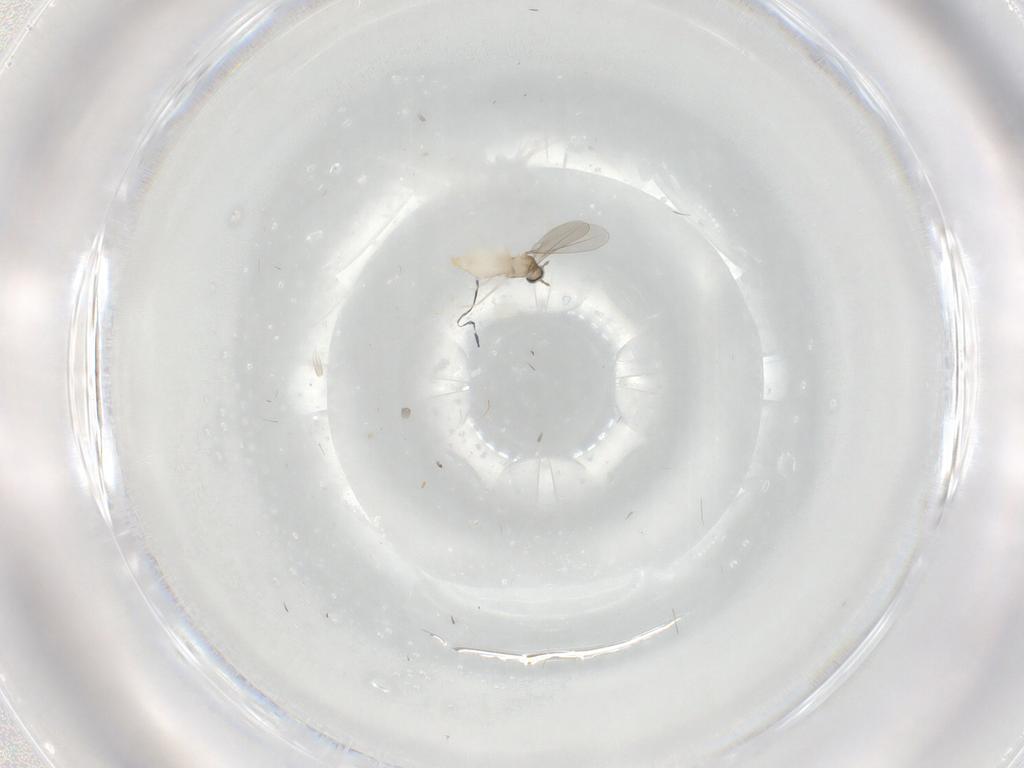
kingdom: Animalia
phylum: Arthropoda
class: Insecta
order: Diptera
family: Cecidomyiidae
